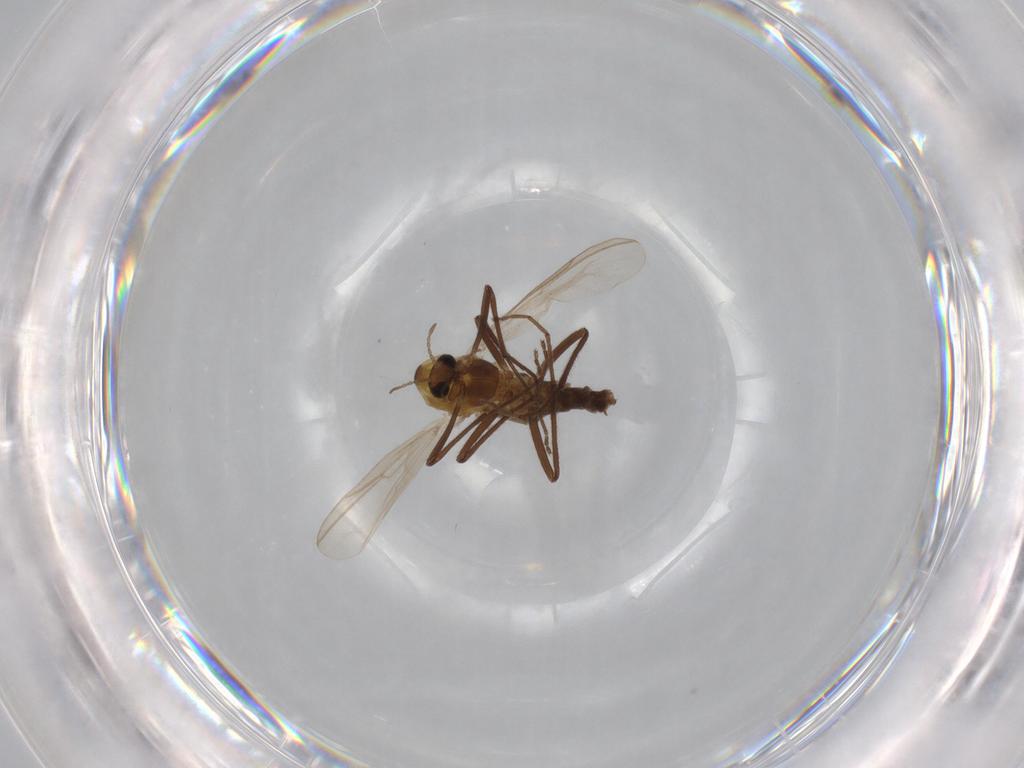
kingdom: Animalia
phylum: Arthropoda
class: Insecta
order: Diptera
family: Chironomidae
